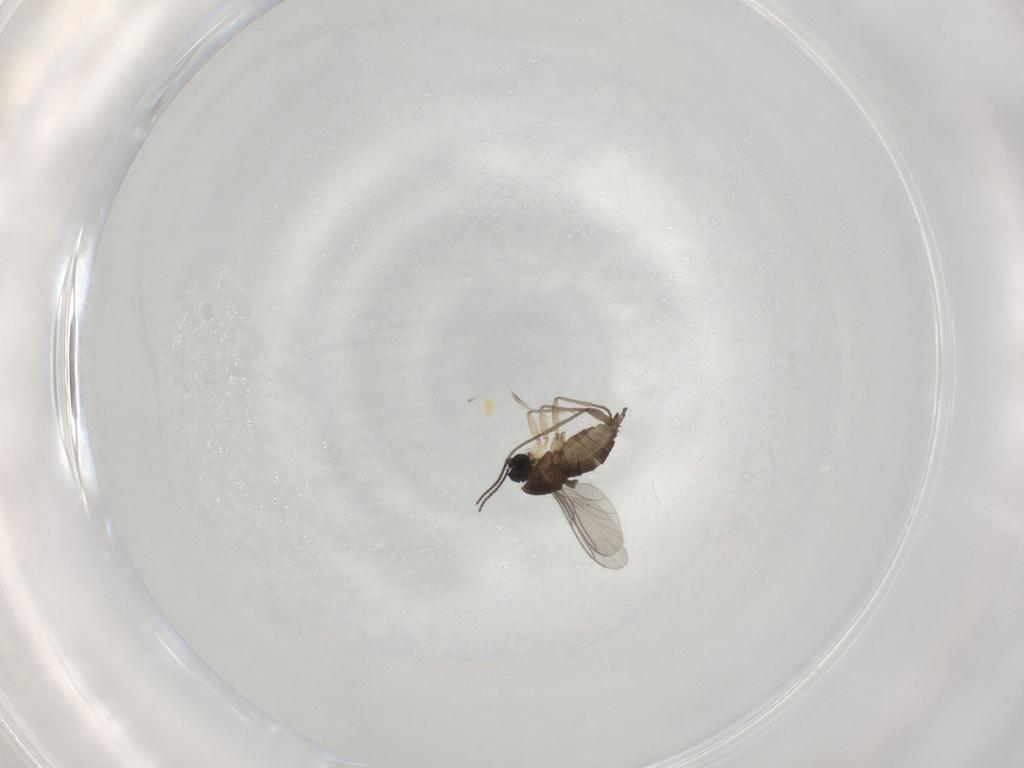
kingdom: Animalia
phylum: Arthropoda
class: Insecta
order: Diptera
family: Sciaridae
